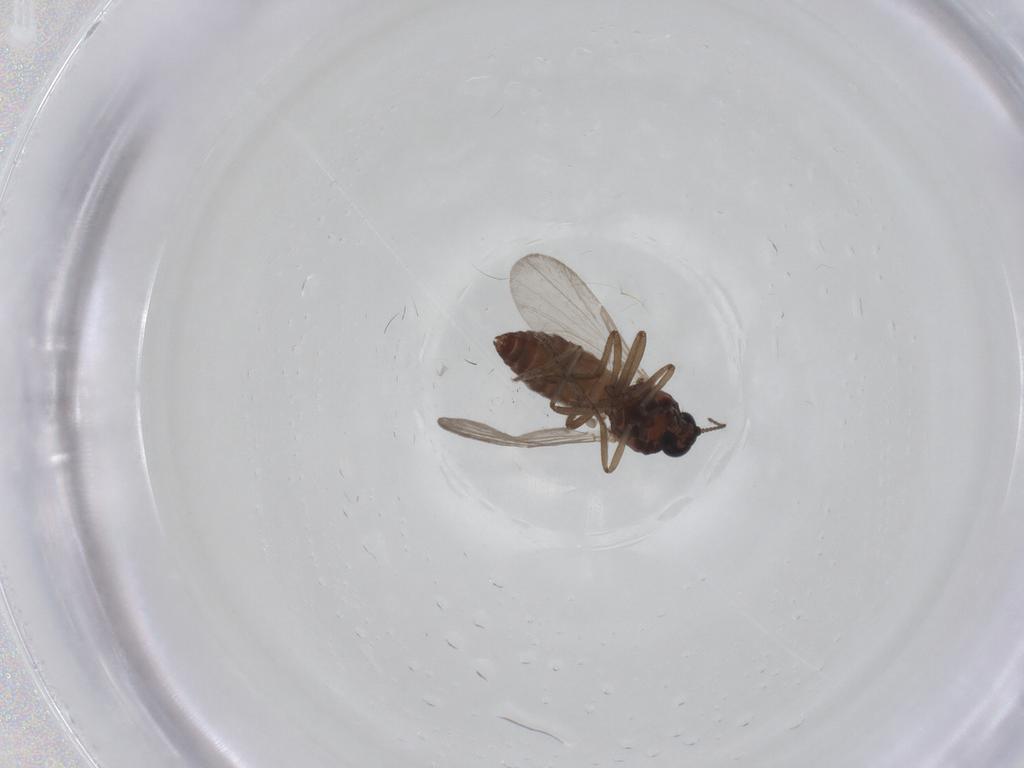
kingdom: Animalia
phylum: Arthropoda
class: Insecta
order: Diptera
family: Ceratopogonidae
